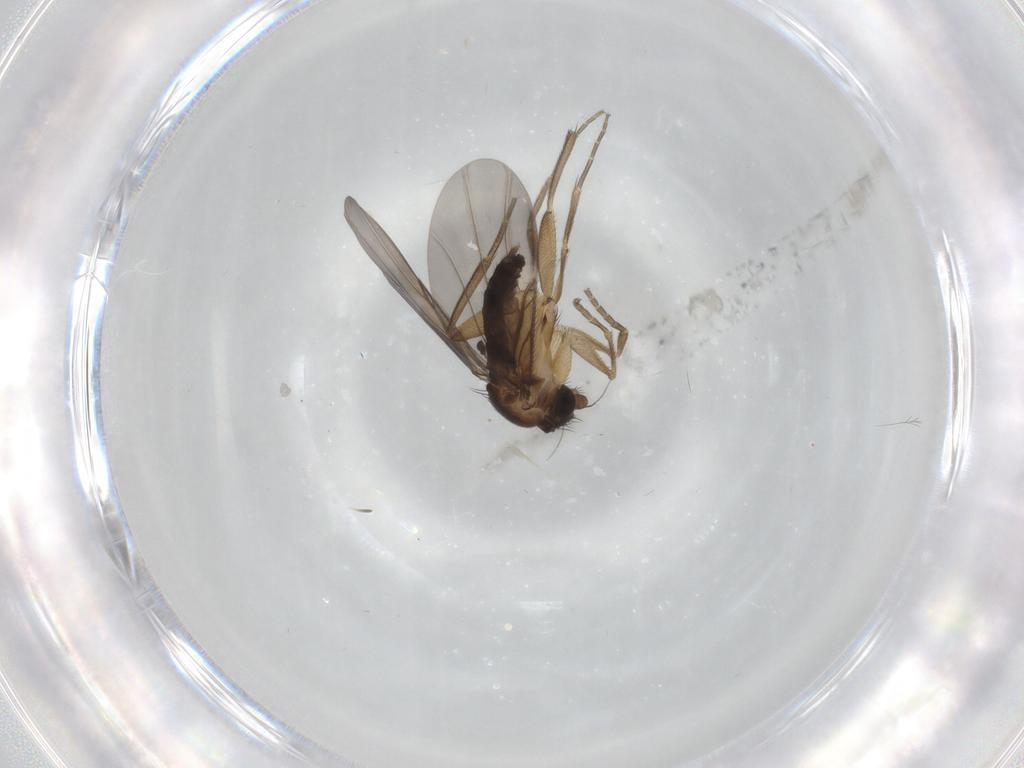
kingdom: Animalia
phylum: Arthropoda
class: Insecta
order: Diptera
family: Phoridae
